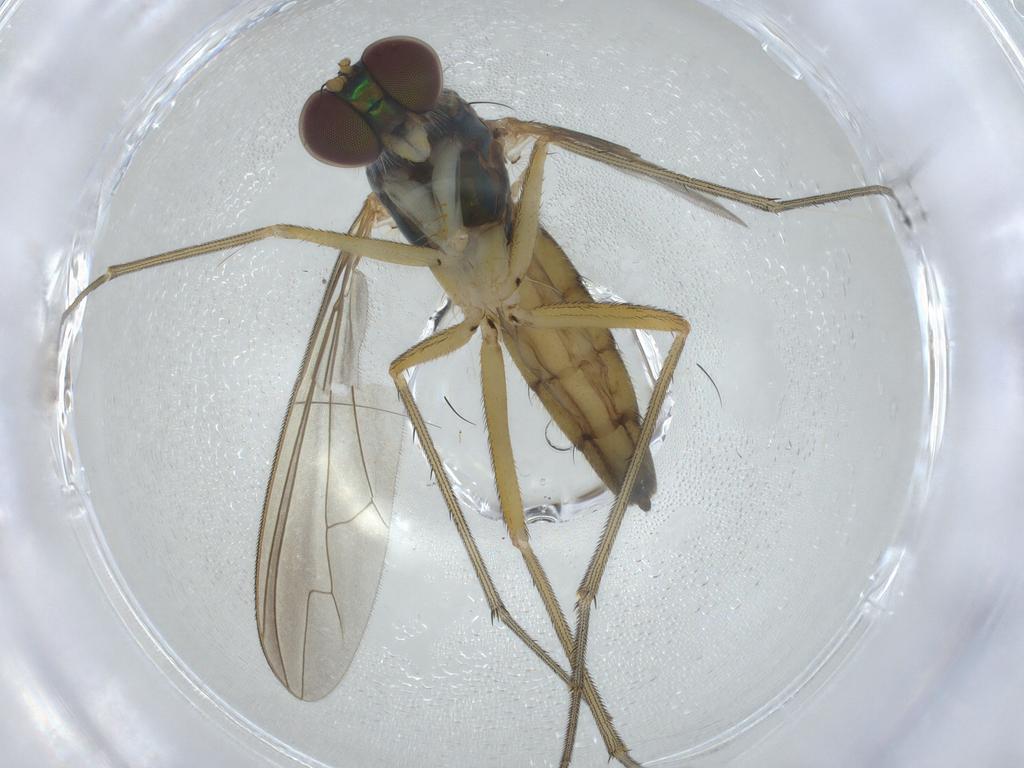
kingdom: Animalia
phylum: Arthropoda
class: Insecta
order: Diptera
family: Dolichopodidae
